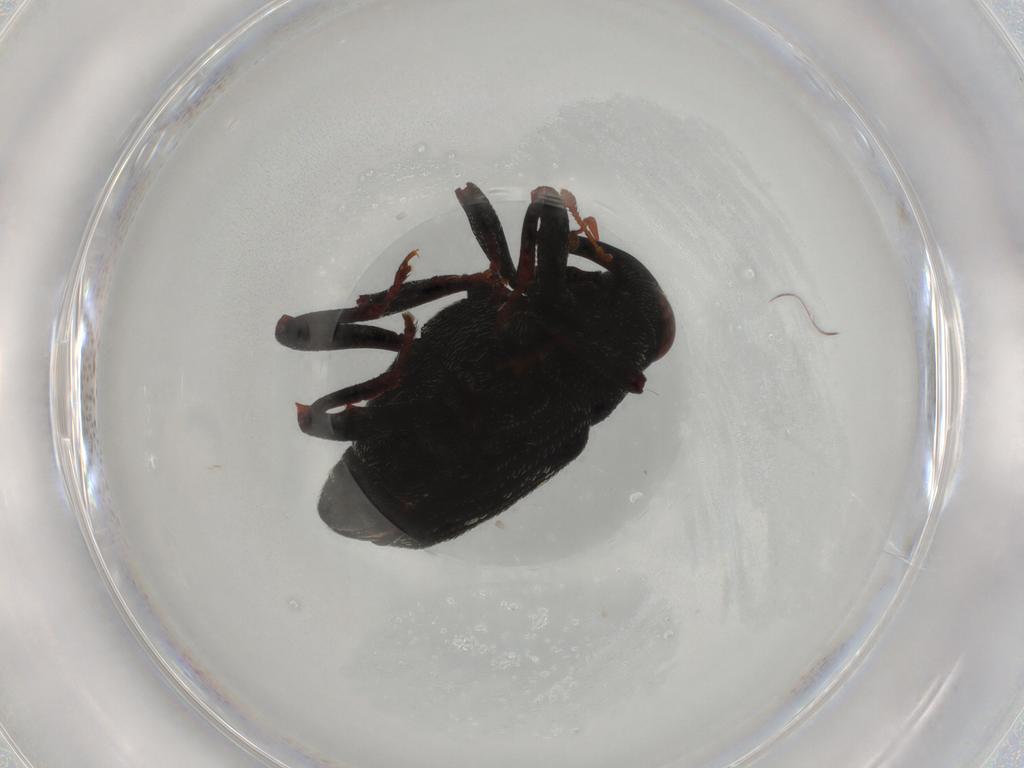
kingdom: Animalia
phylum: Arthropoda
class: Insecta
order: Coleoptera
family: Curculionidae
